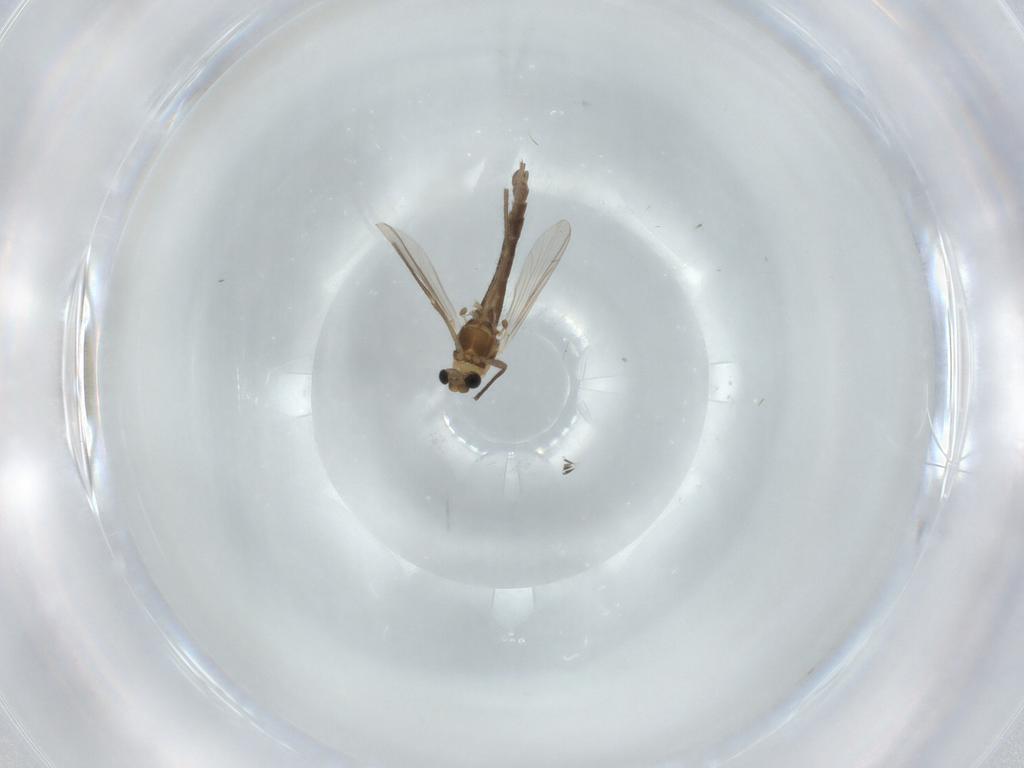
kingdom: Animalia
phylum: Arthropoda
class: Insecta
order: Diptera
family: Chironomidae
